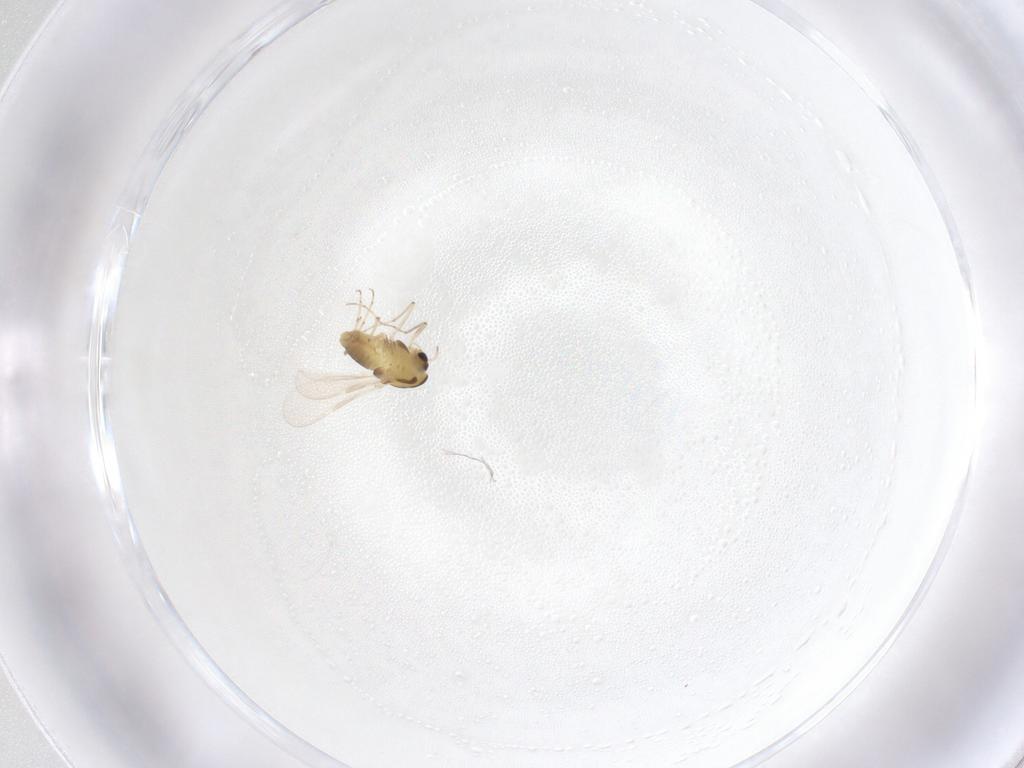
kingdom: Animalia
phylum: Arthropoda
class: Insecta
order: Diptera
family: Chironomidae
